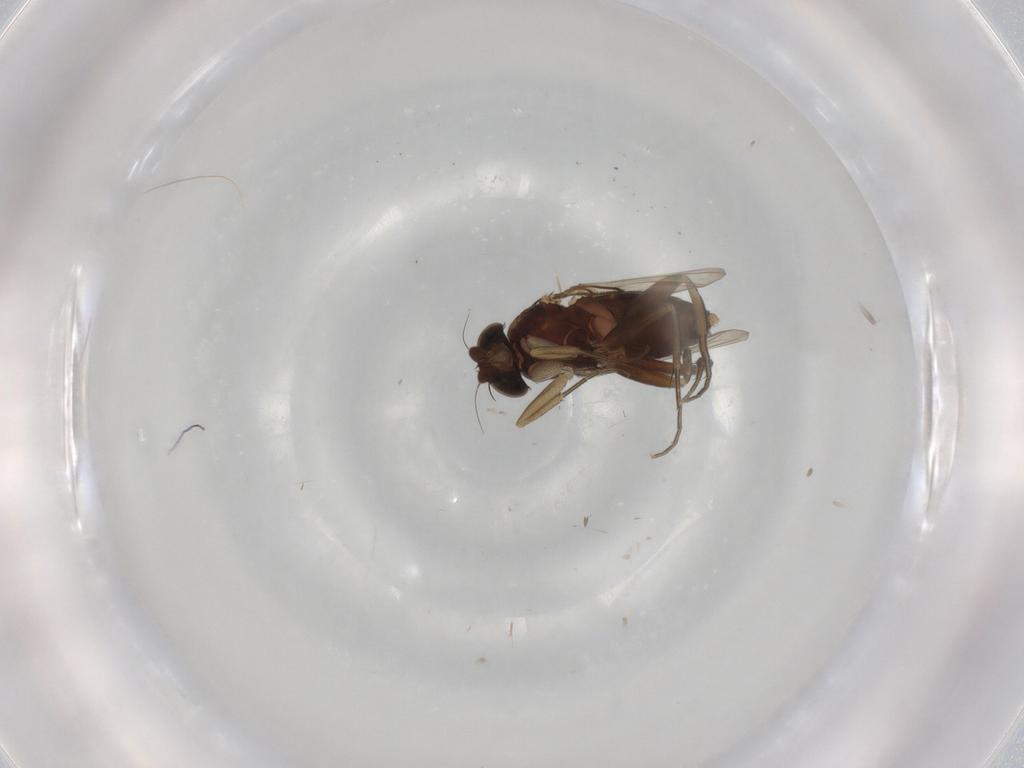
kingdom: Animalia
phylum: Arthropoda
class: Insecta
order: Diptera
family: Phoridae
